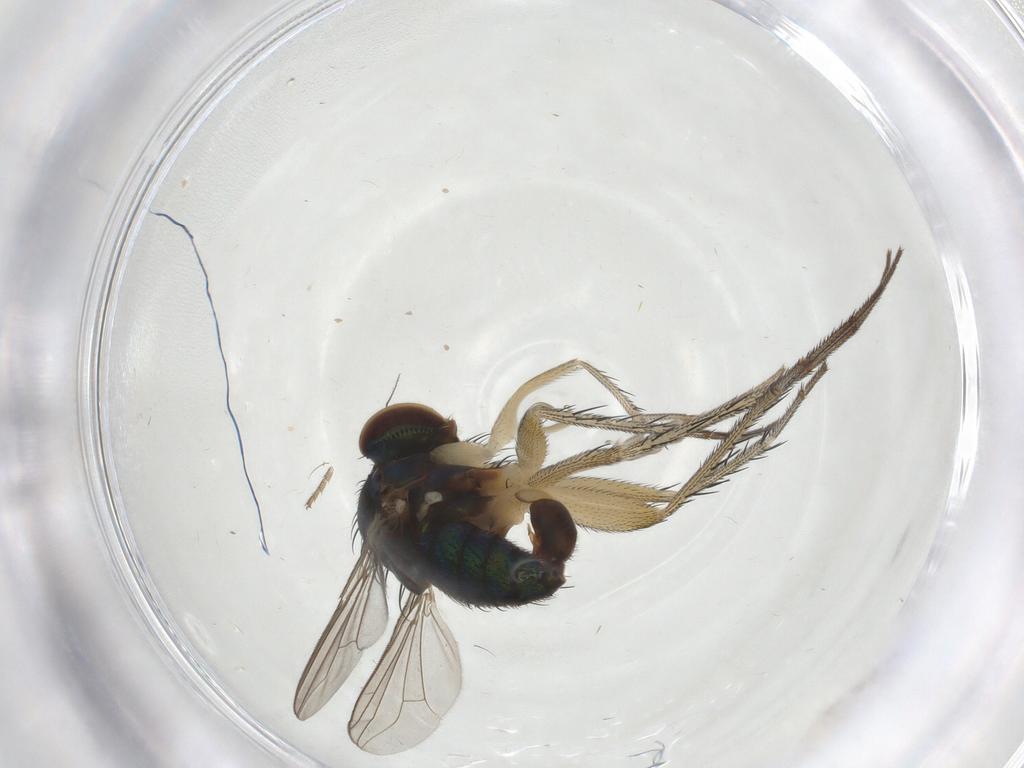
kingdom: Animalia
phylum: Arthropoda
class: Insecta
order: Diptera
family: Dolichopodidae
